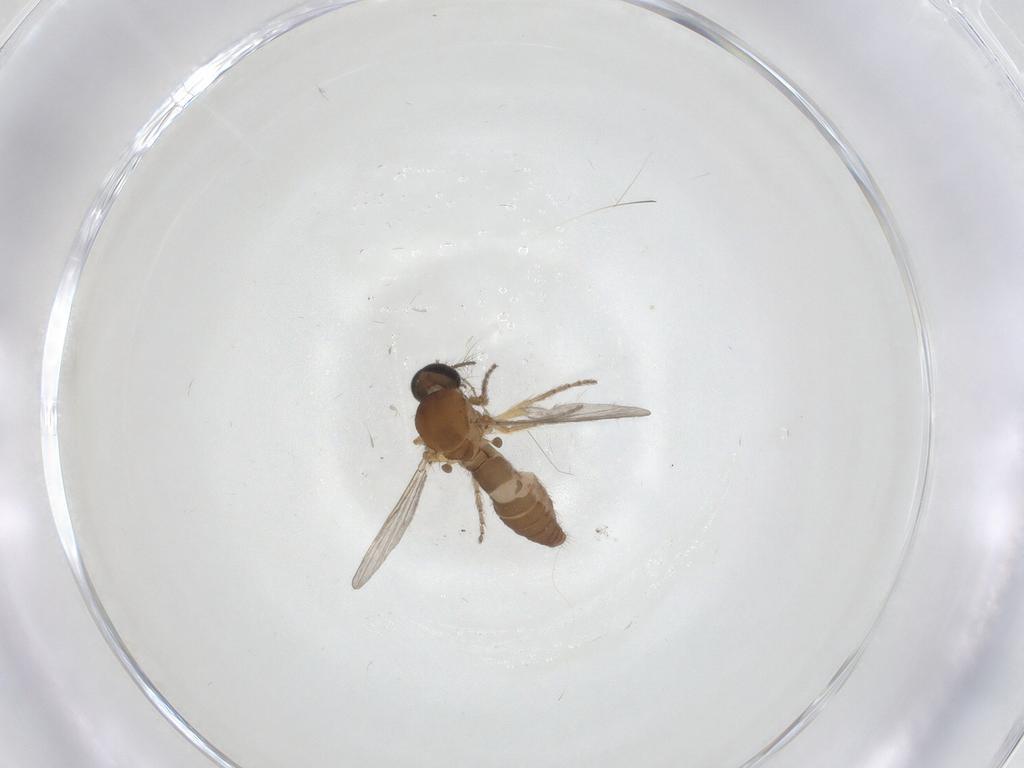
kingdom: Animalia
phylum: Arthropoda
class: Insecta
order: Diptera
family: Ceratopogonidae
